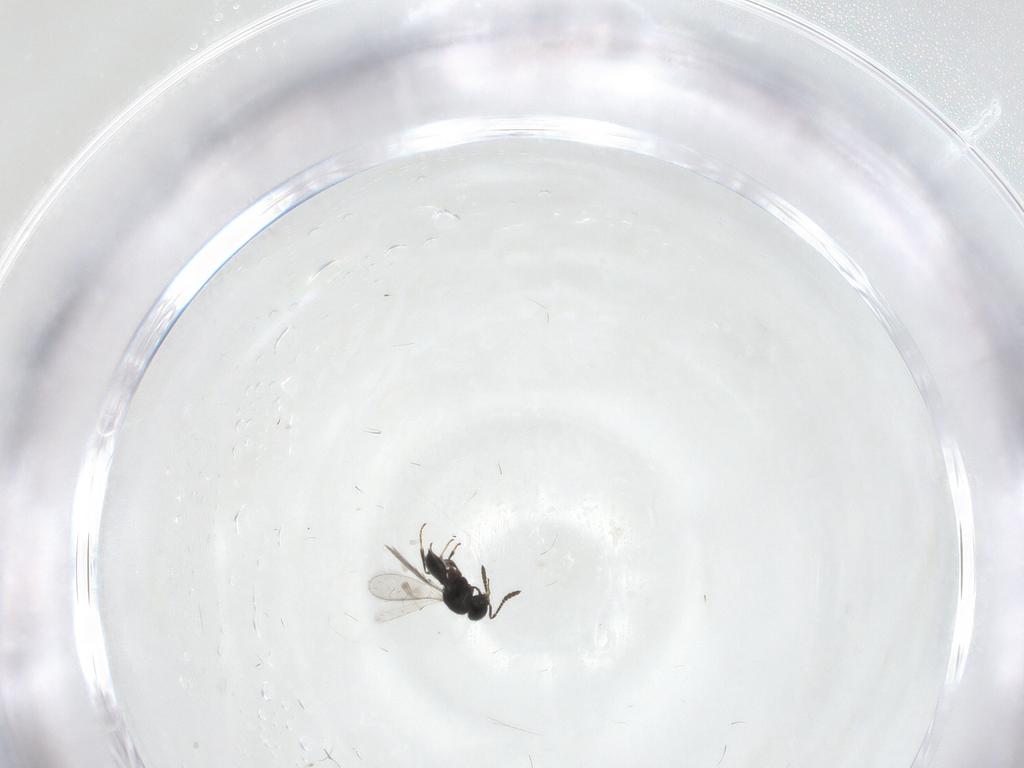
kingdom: Animalia
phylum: Arthropoda
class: Insecta
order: Hymenoptera
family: Scelionidae
